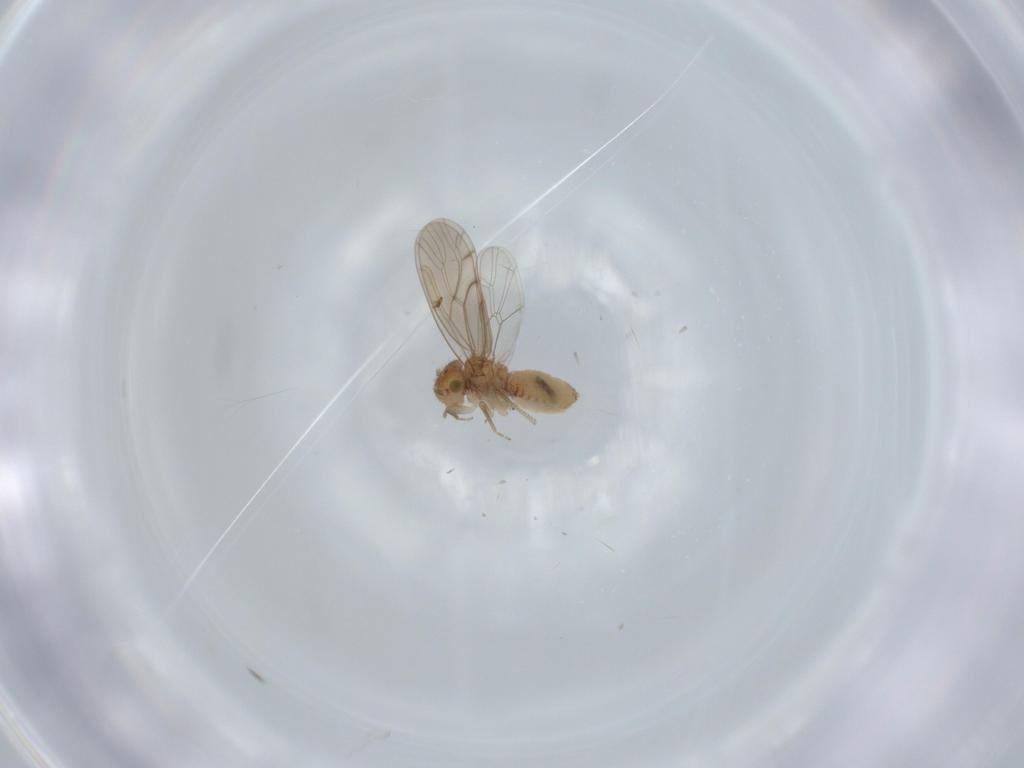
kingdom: Animalia
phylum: Arthropoda
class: Insecta
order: Psocodea
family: Ectopsocidae
